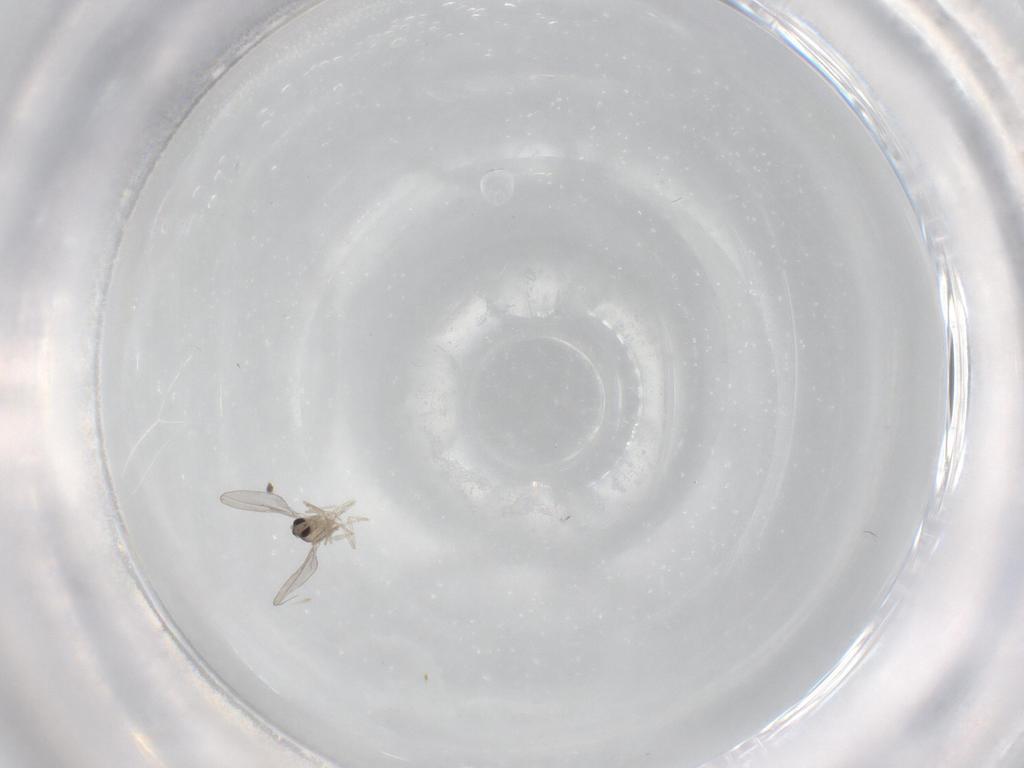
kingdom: Animalia
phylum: Arthropoda
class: Insecta
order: Diptera
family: Cecidomyiidae
